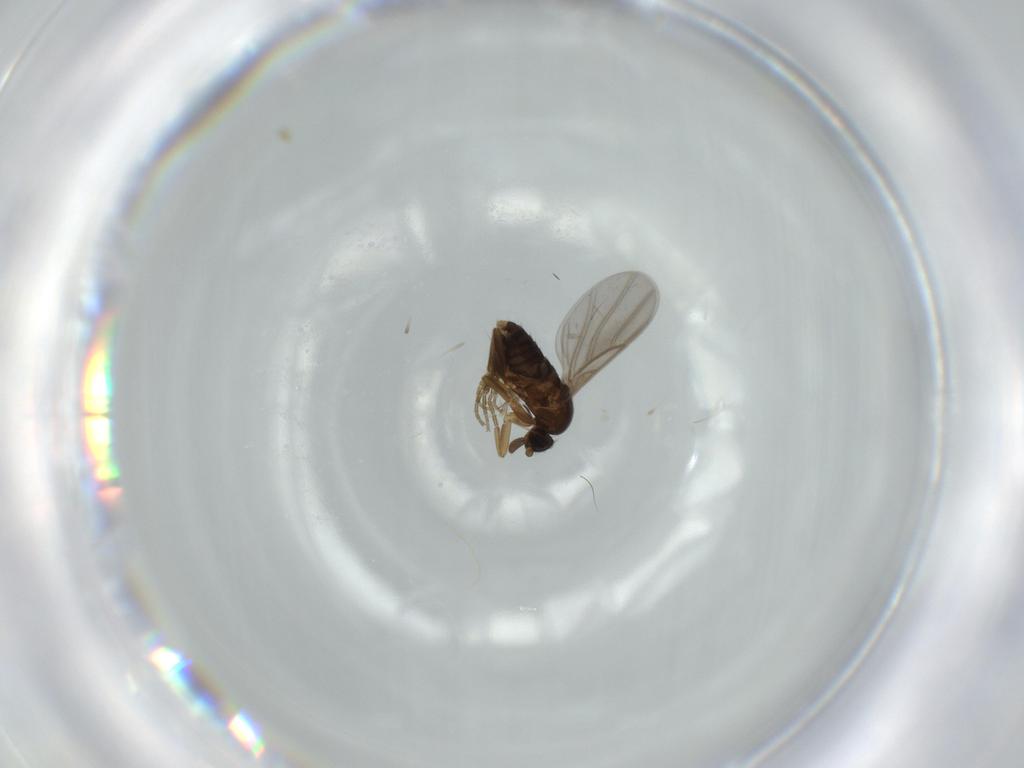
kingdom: Animalia
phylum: Arthropoda
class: Insecta
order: Diptera
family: Phoridae
